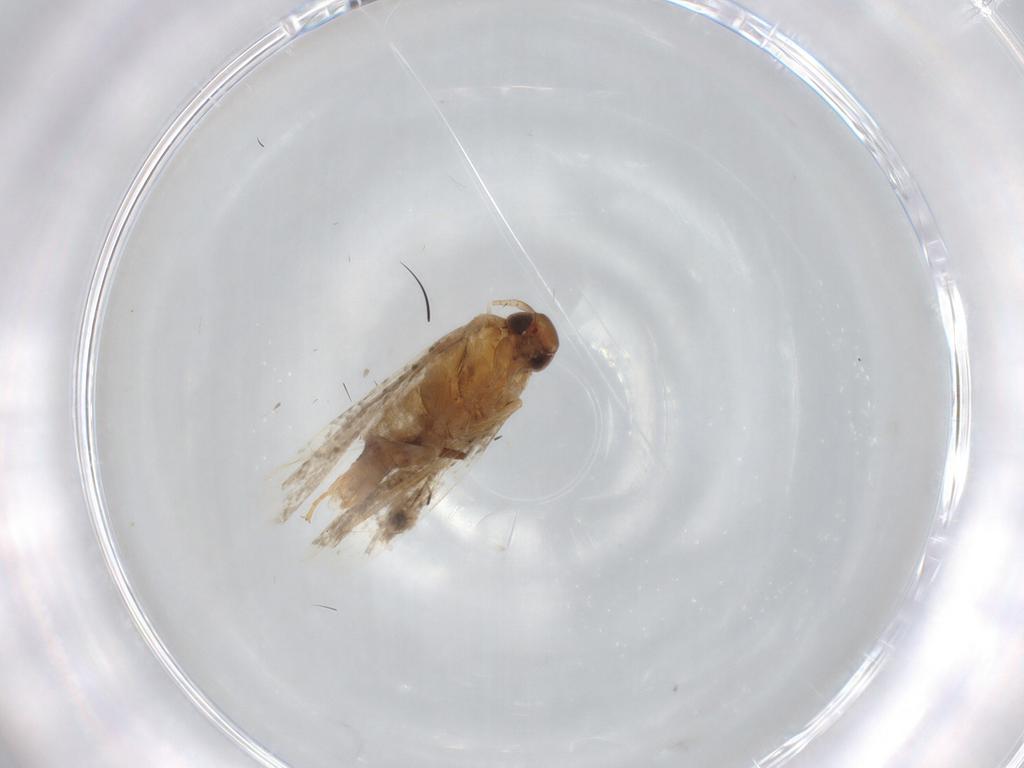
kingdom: Animalia
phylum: Arthropoda
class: Insecta
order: Lepidoptera
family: Gelechiidae
